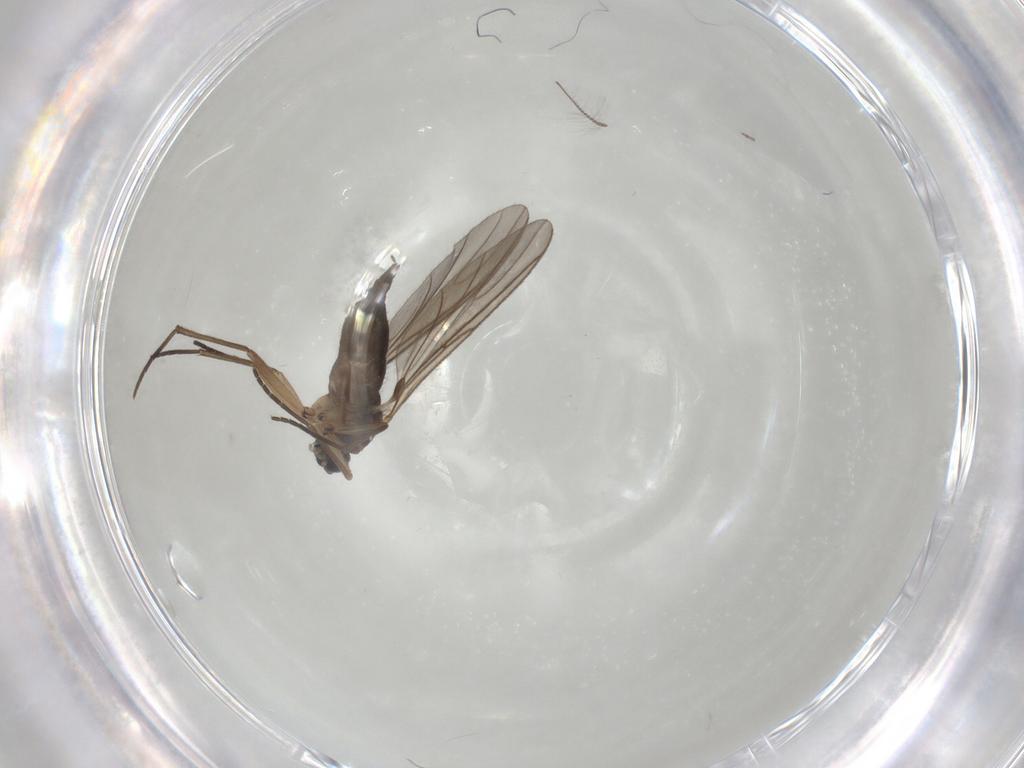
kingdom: Animalia
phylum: Arthropoda
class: Insecta
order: Diptera
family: Sciaridae
